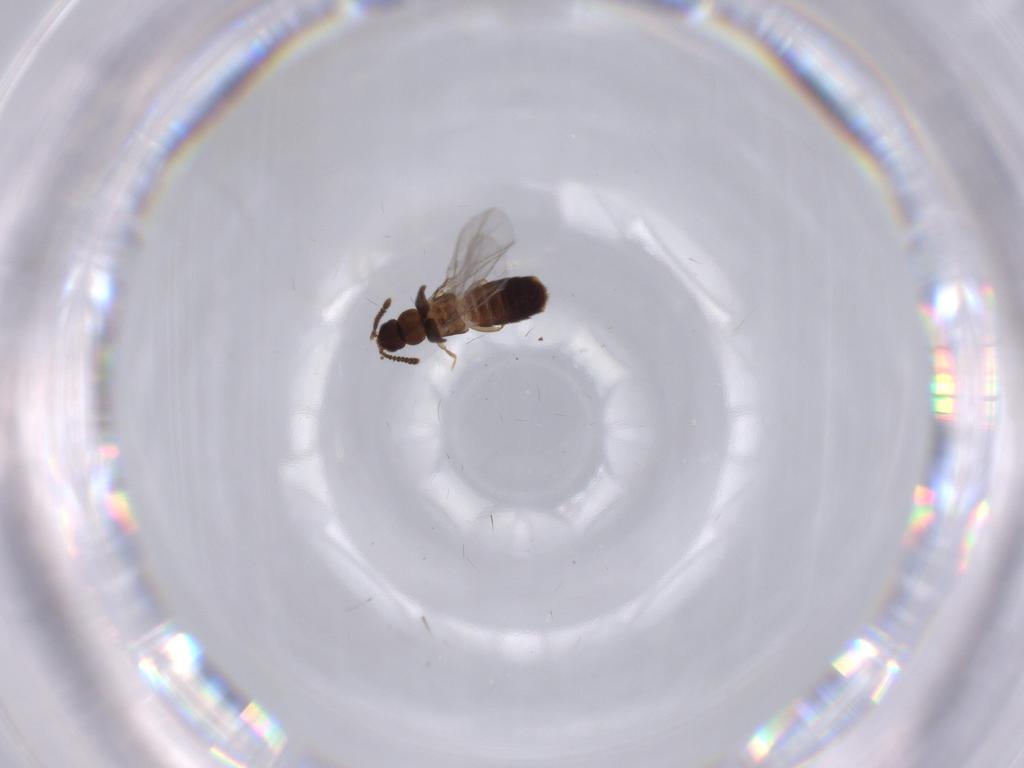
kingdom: Animalia
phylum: Arthropoda
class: Insecta
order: Coleoptera
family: Staphylinidae
